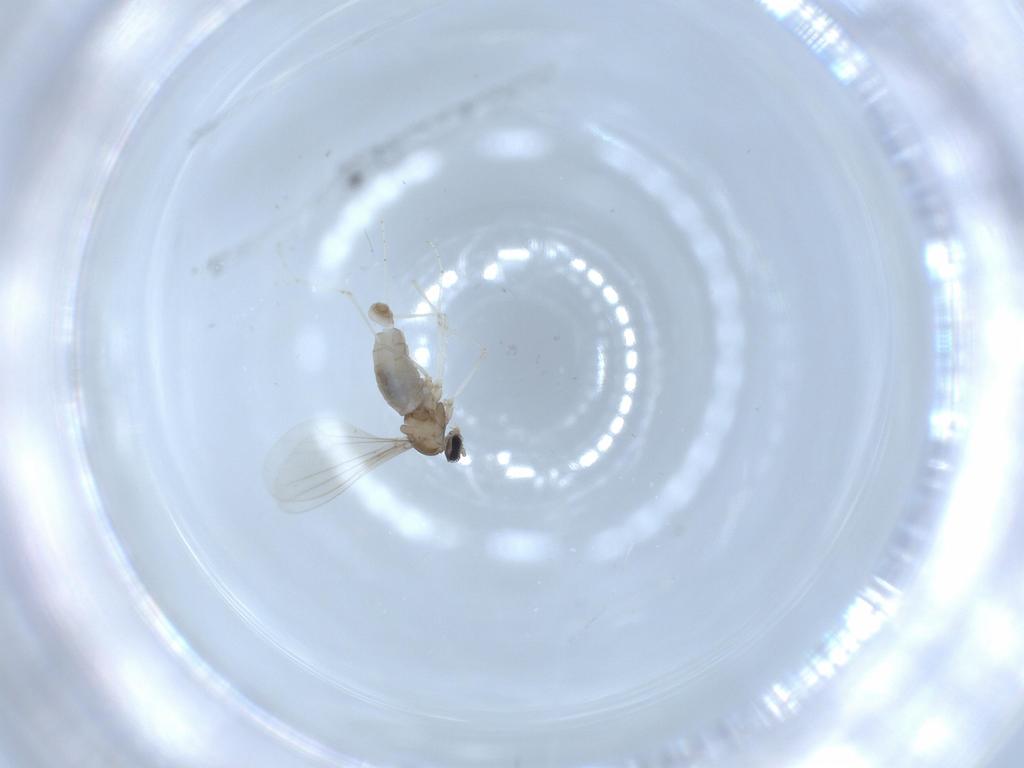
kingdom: Animalia
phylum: Arthropoda
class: Insecta
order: Diptera
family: Cecidomyiidae
